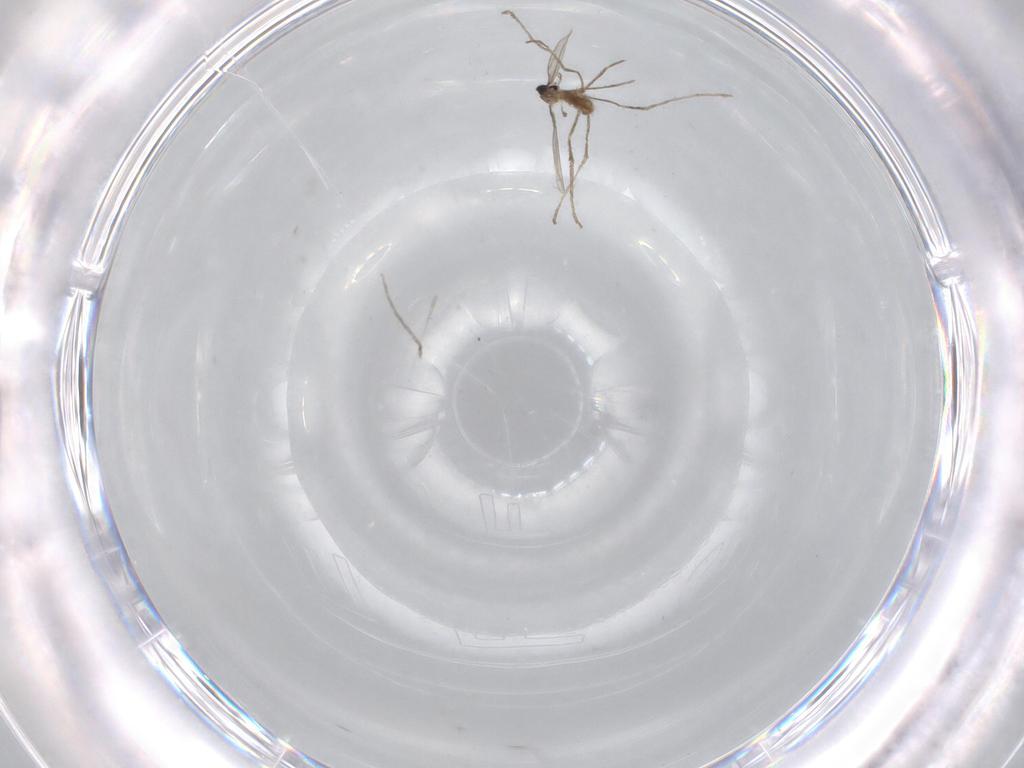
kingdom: Animalia
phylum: Arthropoda
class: Insecta
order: Diptera
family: Cecidomyiidae
